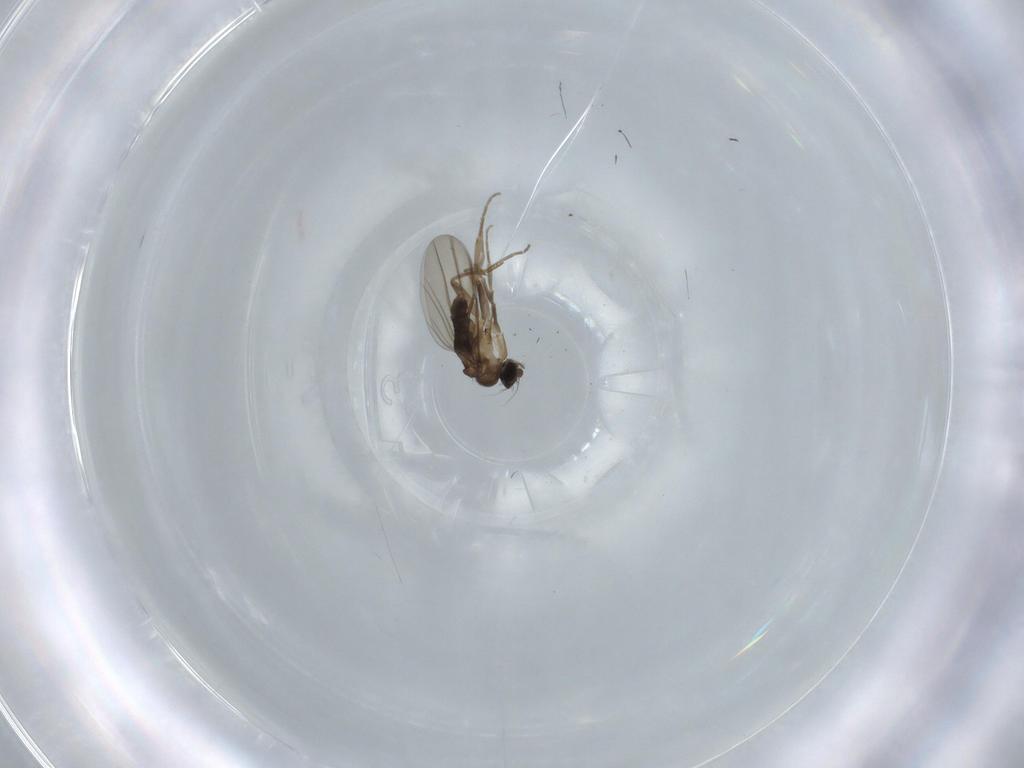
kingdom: Animalia
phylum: Arthropoda
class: Insecta
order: Diptera
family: Phoridae
